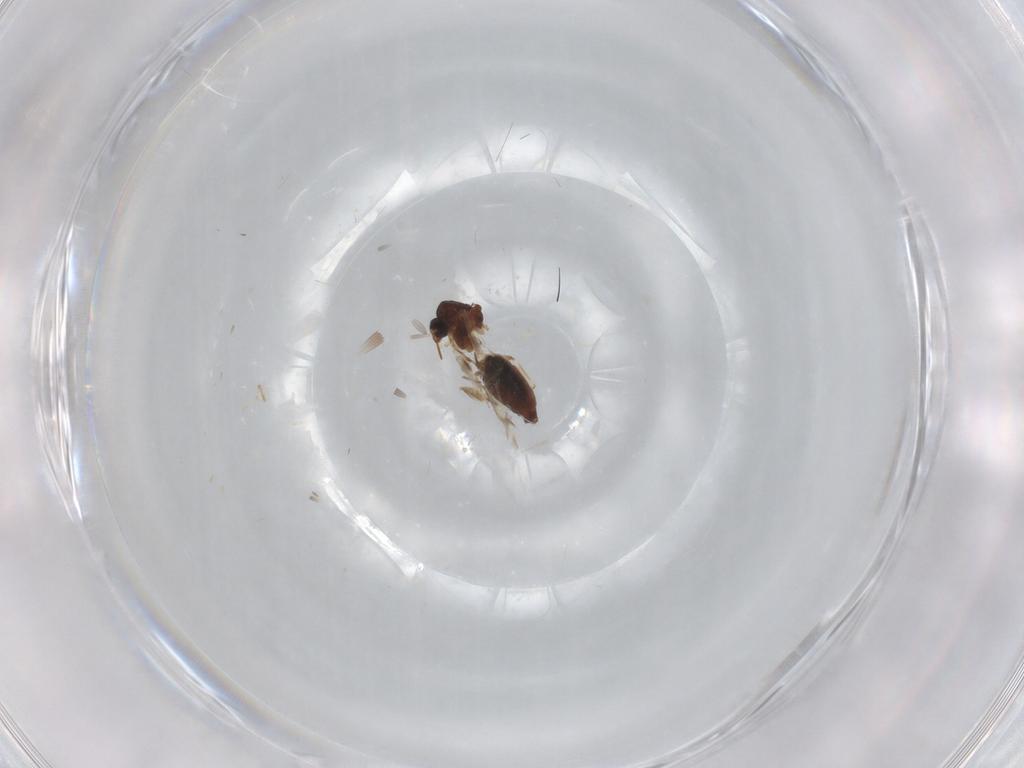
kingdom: Animalia
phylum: Arthropoda
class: Insecta
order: Diptera
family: Cecidomyiidae
